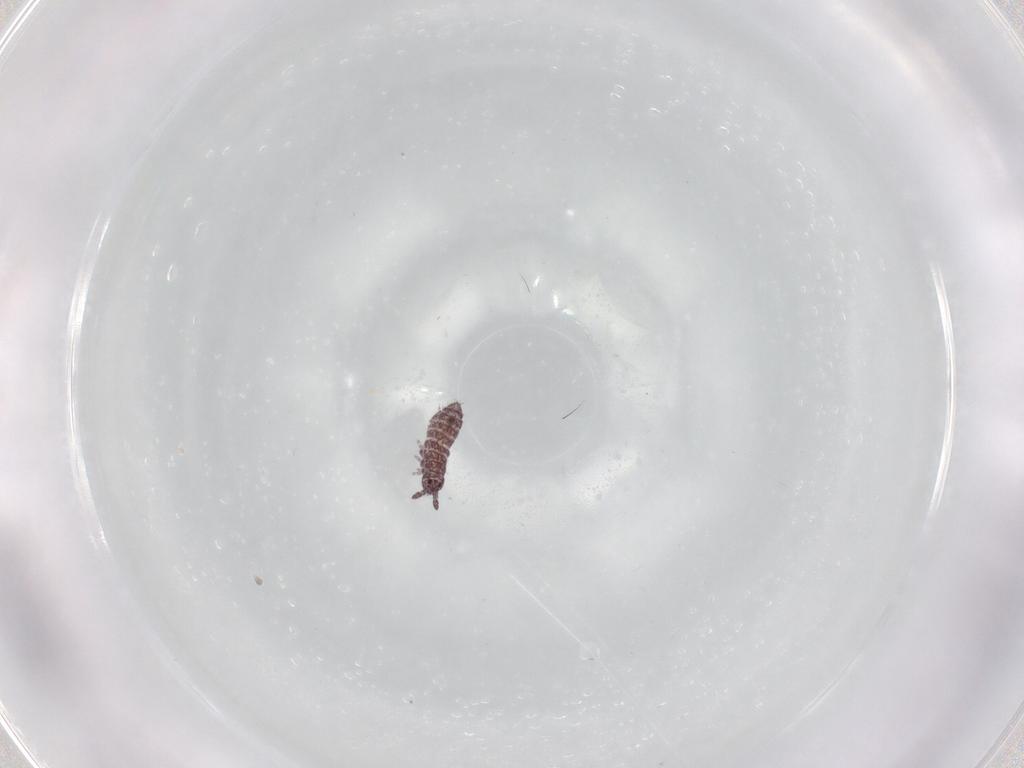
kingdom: Animalia
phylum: Arthropoda
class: Collembola
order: Poduromorpha
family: Hypogastruridae
